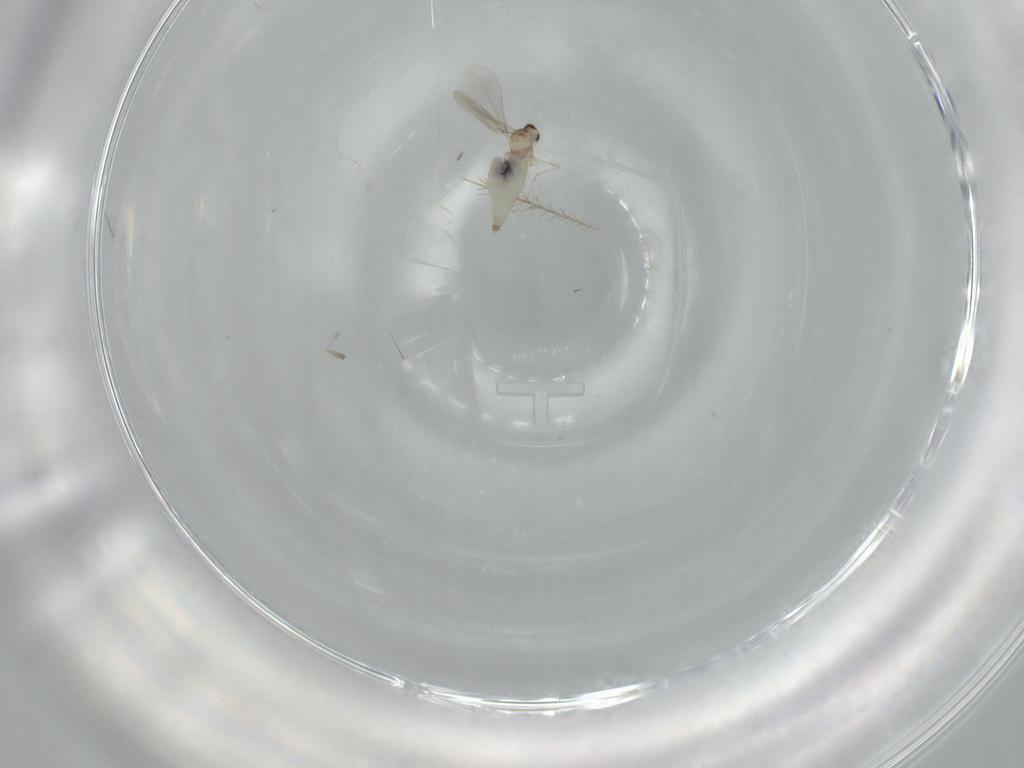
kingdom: Animalia
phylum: Arthropoda
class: Insecta
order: Diptera
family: Cecidomyiidae
